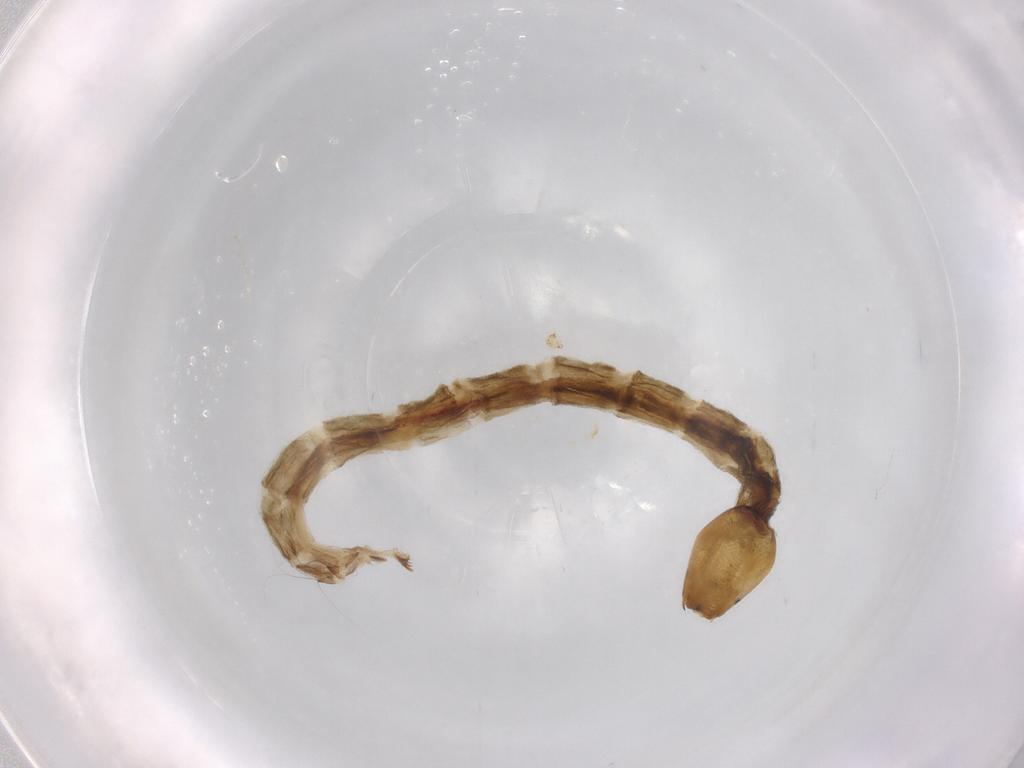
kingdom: Animalia
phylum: Arthropoda
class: Insecta
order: Diptera
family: Chironomidae
